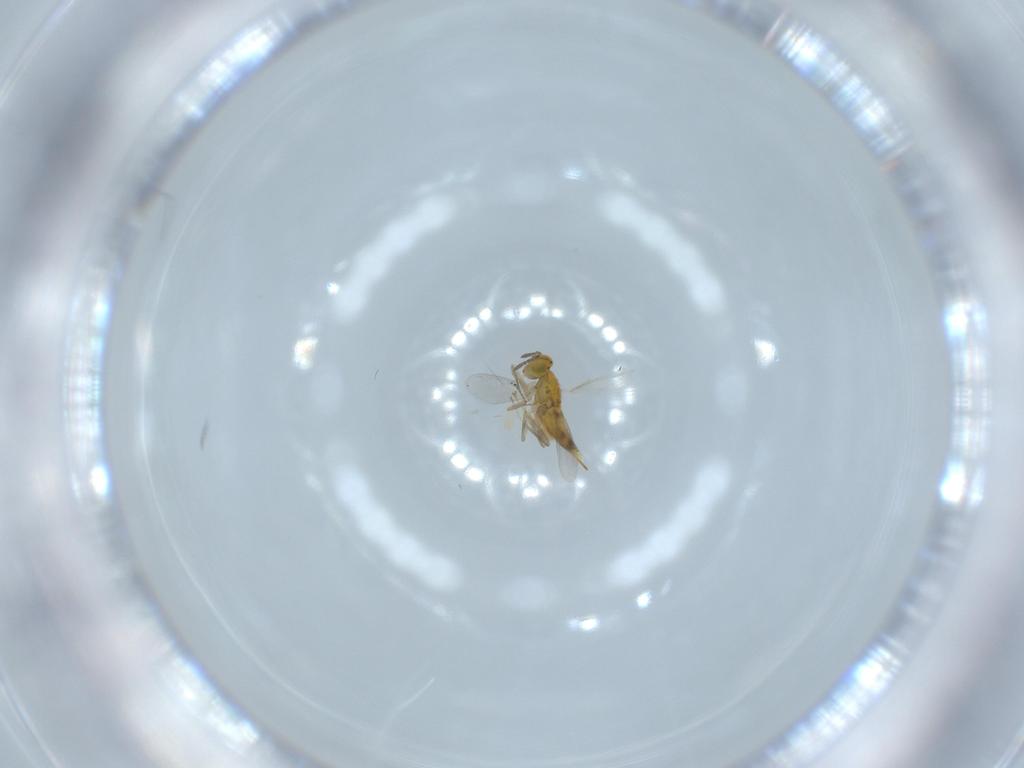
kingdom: Animalia
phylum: Arthropoda
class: Insecta
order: Hymenoptera
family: Aphelinidae
